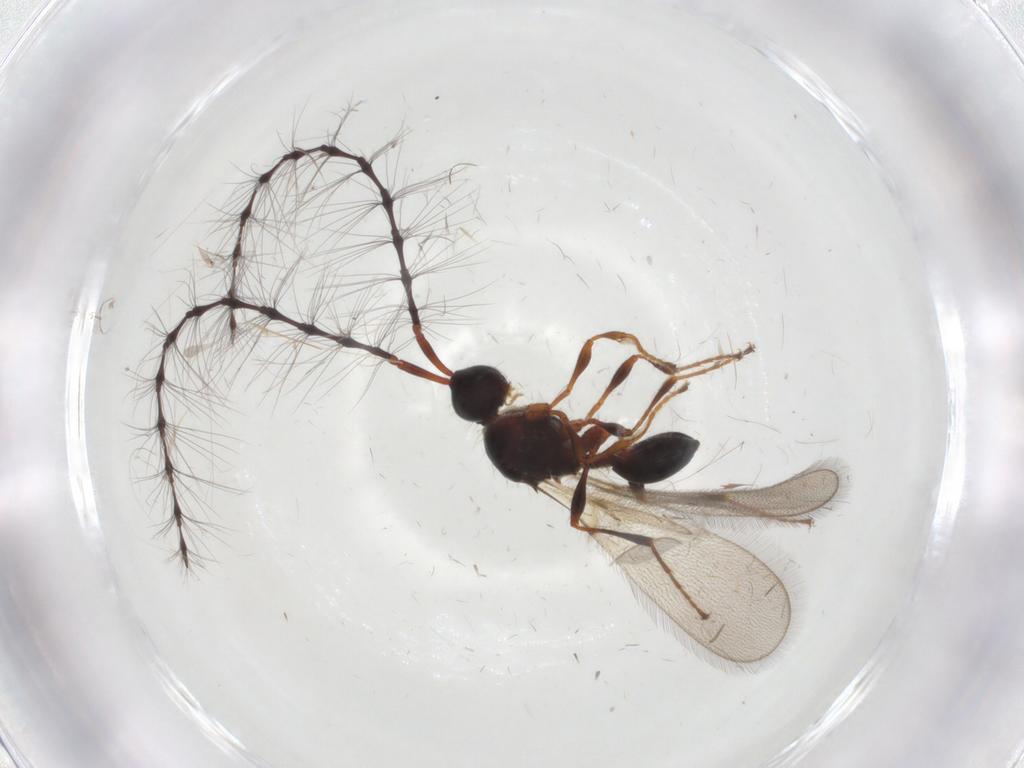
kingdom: Animalia
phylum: Arthropoda
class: Insecta
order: Hymenoptera
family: Diapriidae
